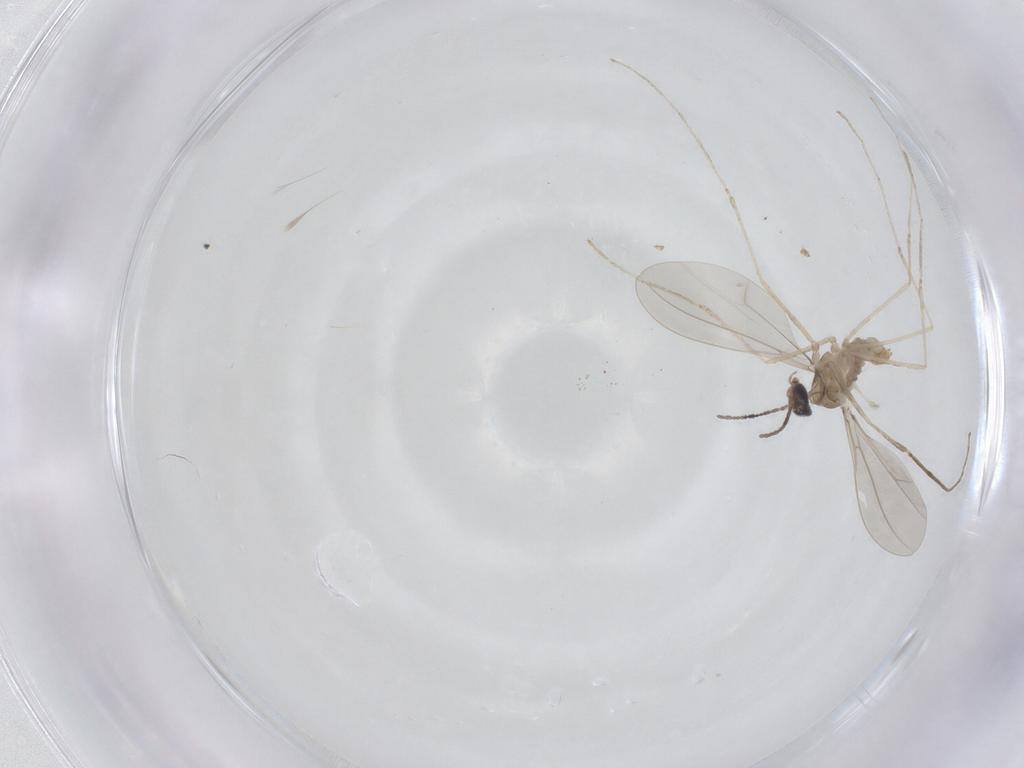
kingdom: Animalia
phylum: Arthropoda
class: Insecta
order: Diptera
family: Cecidomyiidae
